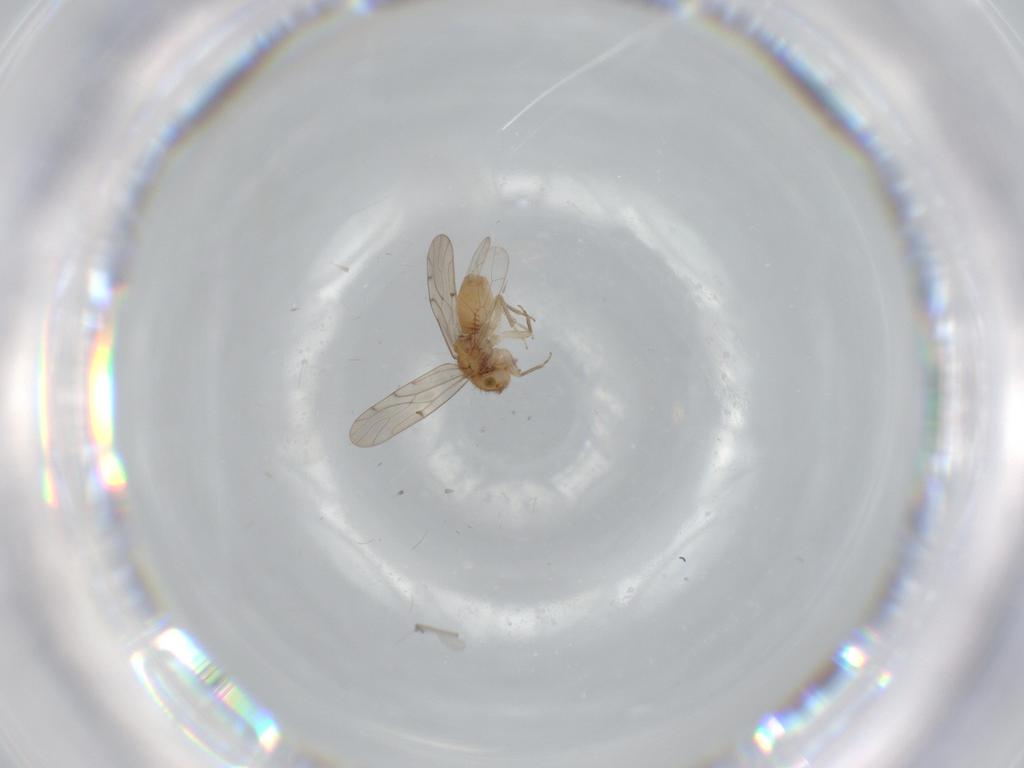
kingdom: Animalia
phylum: Arthropoda
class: Insecta
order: Psocodea
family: Ectopsocidae
